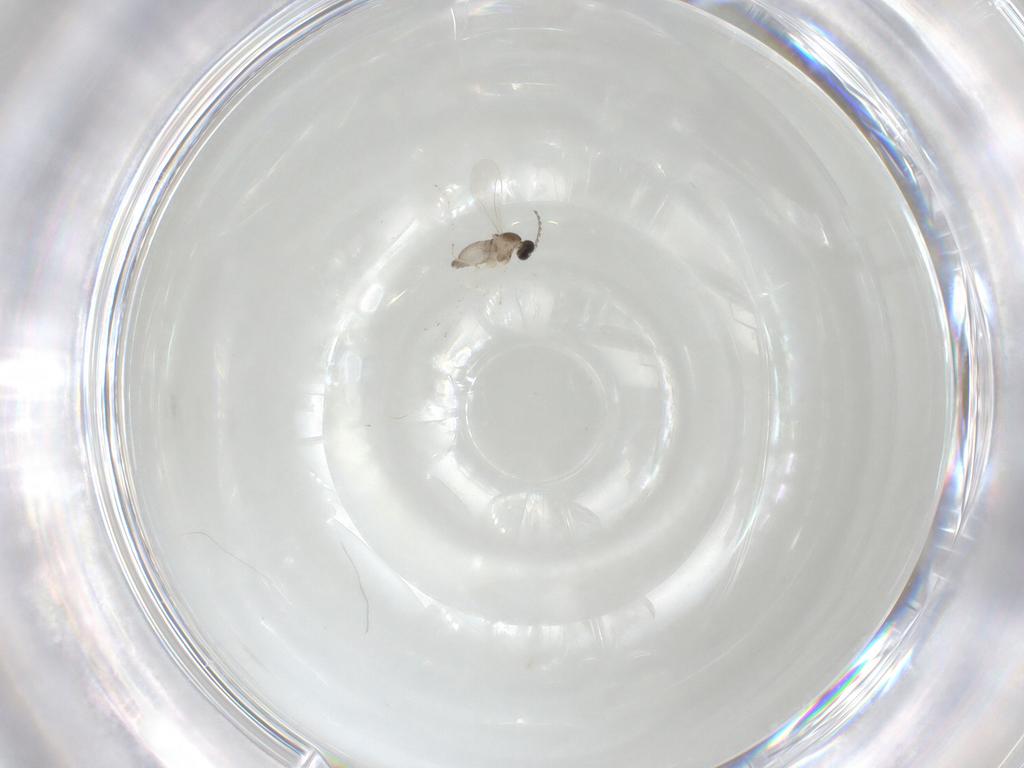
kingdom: Animalia
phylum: Arthropoda
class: Insecta
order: Diptera
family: Cecidomyiidae
